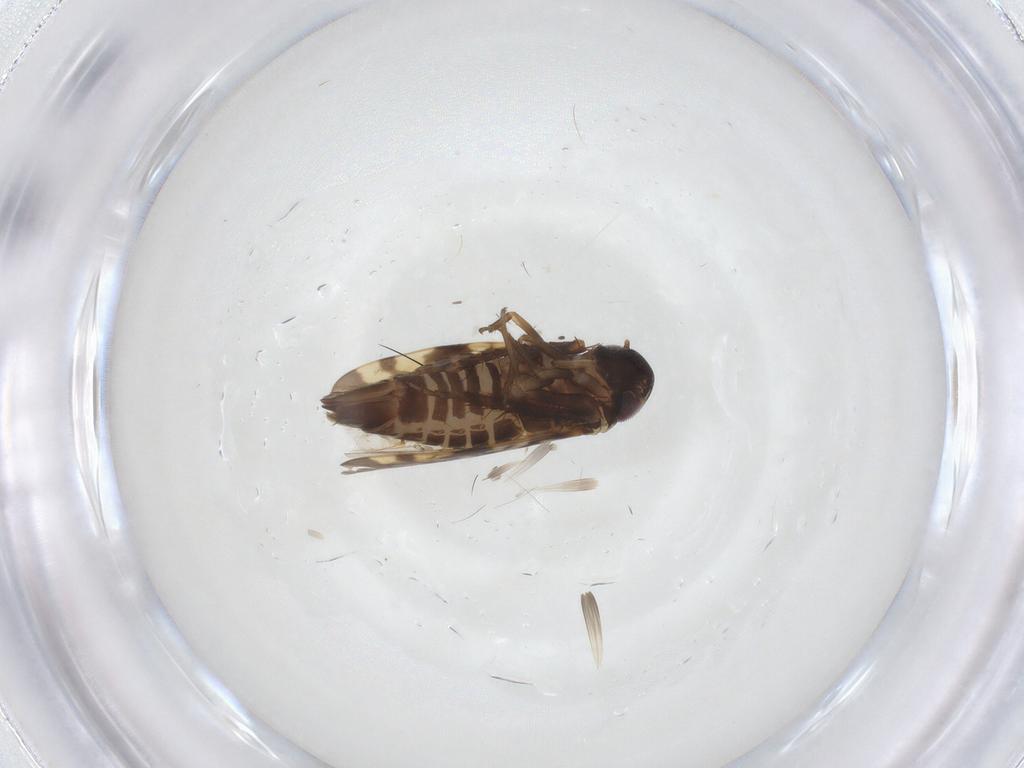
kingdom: Animalia
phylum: Arthropoda
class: Insecta
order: Hemiptera
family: Cicadellidae
